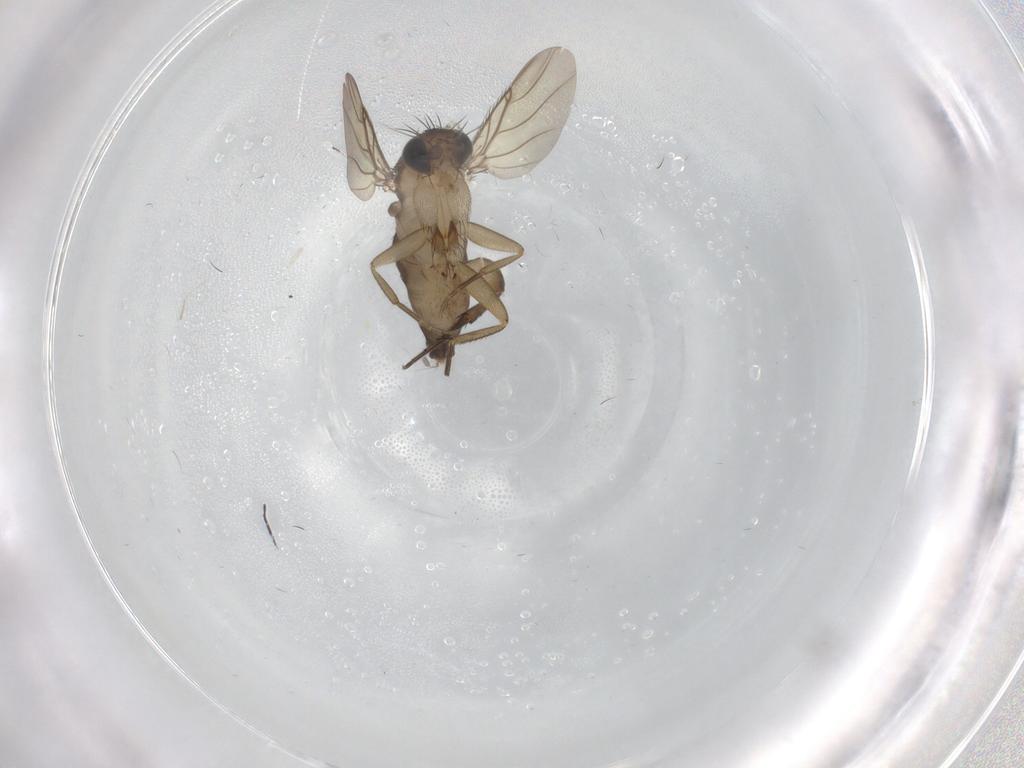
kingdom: Animalia
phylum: Arthropoda
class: Insecta
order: Diptera
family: Phoridae
